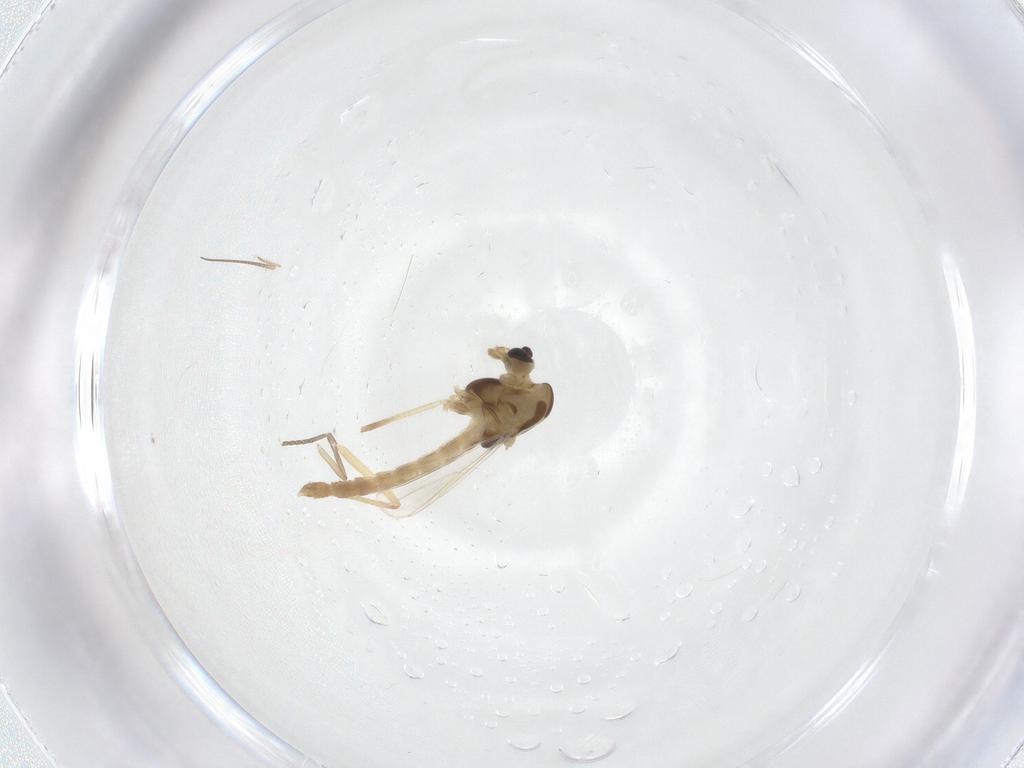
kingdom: Animalia
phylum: Arthropoda
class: Insecta
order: Diptera
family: Chironomidae
